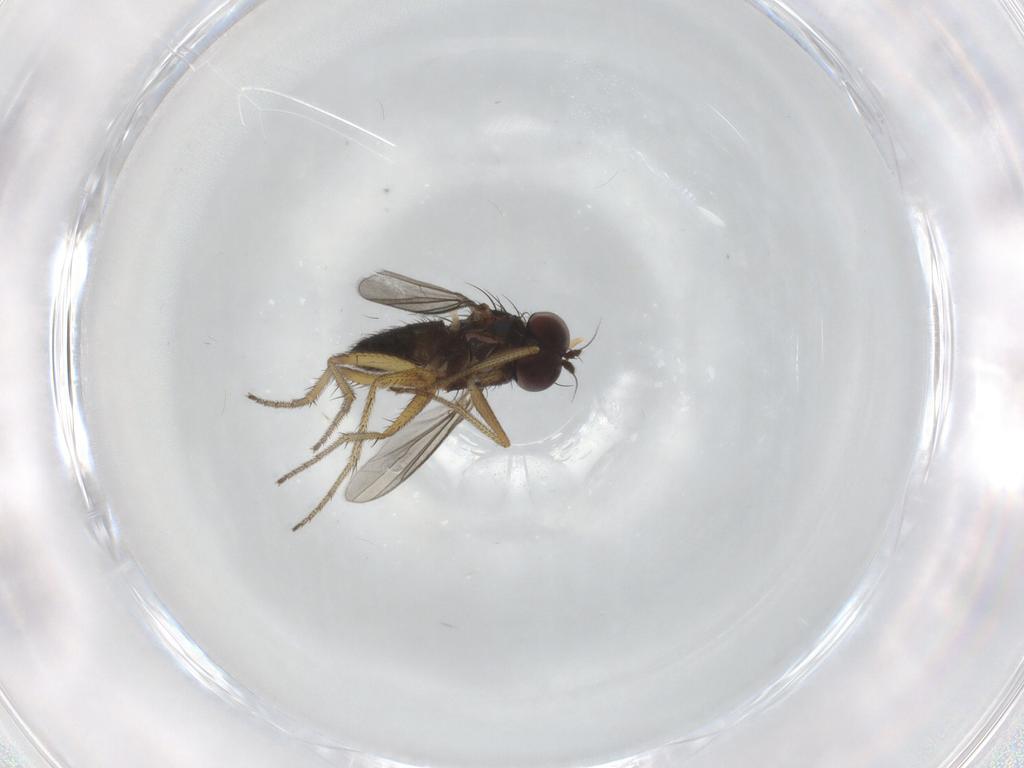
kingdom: Animalia
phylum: Arthropoda
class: Insecta
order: Diptera
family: Dolichopodidae
